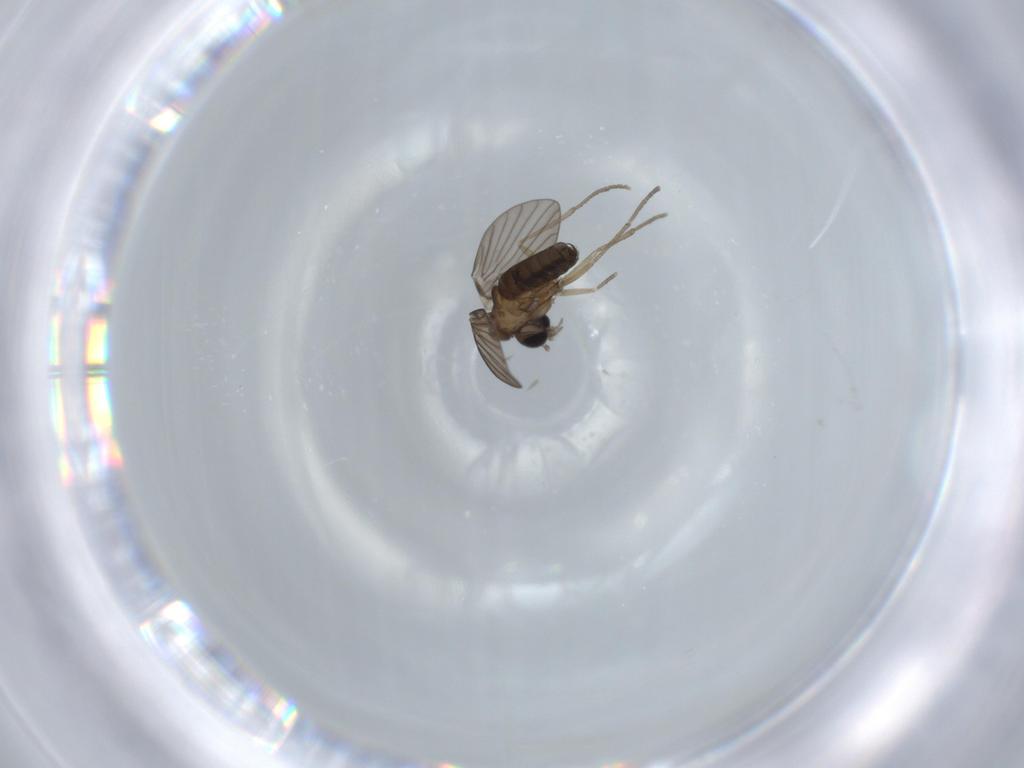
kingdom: Animalia
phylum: Arthropoda
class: Insecta
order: Diptera
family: Psychodidae
